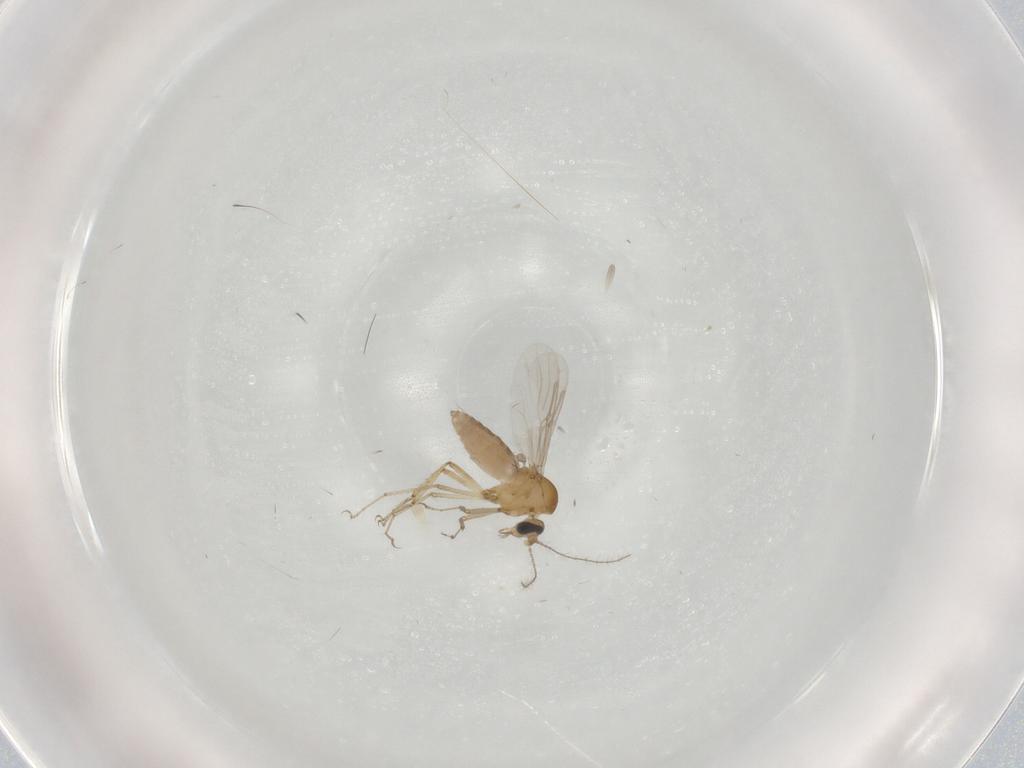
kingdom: Animalia
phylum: Arthropoda
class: Insecta
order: Diptera
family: Ceratopogonidae
